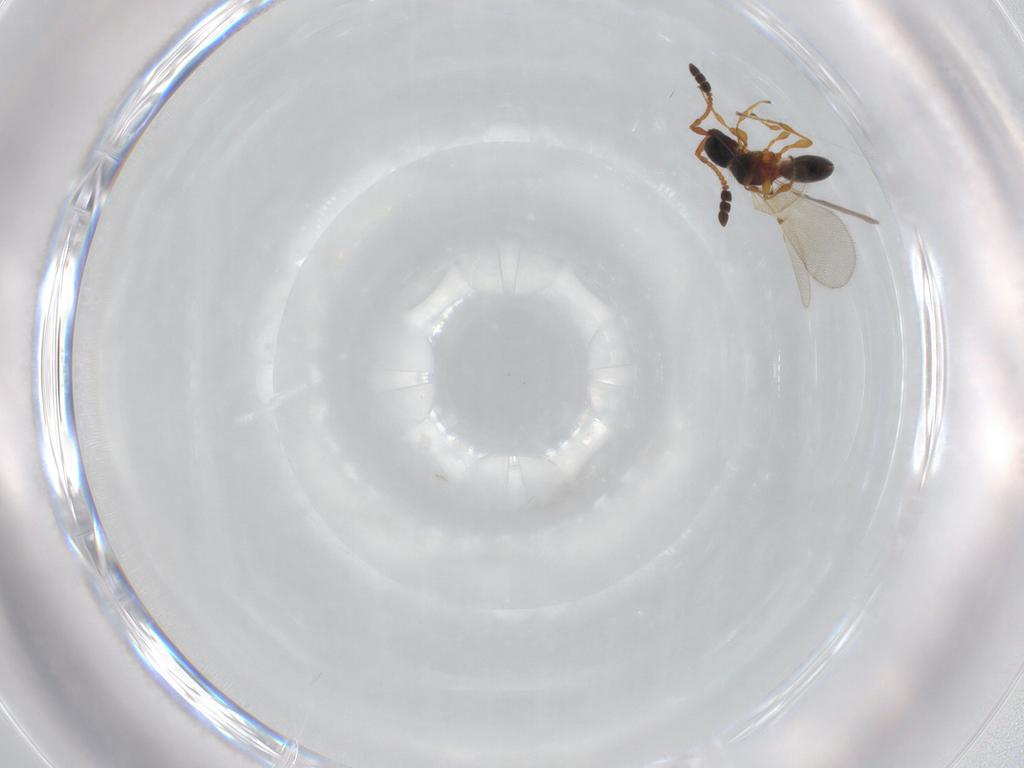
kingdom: Animalia
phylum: Arthropoda
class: Insecta
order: Hymenoptera
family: Diapriidae
